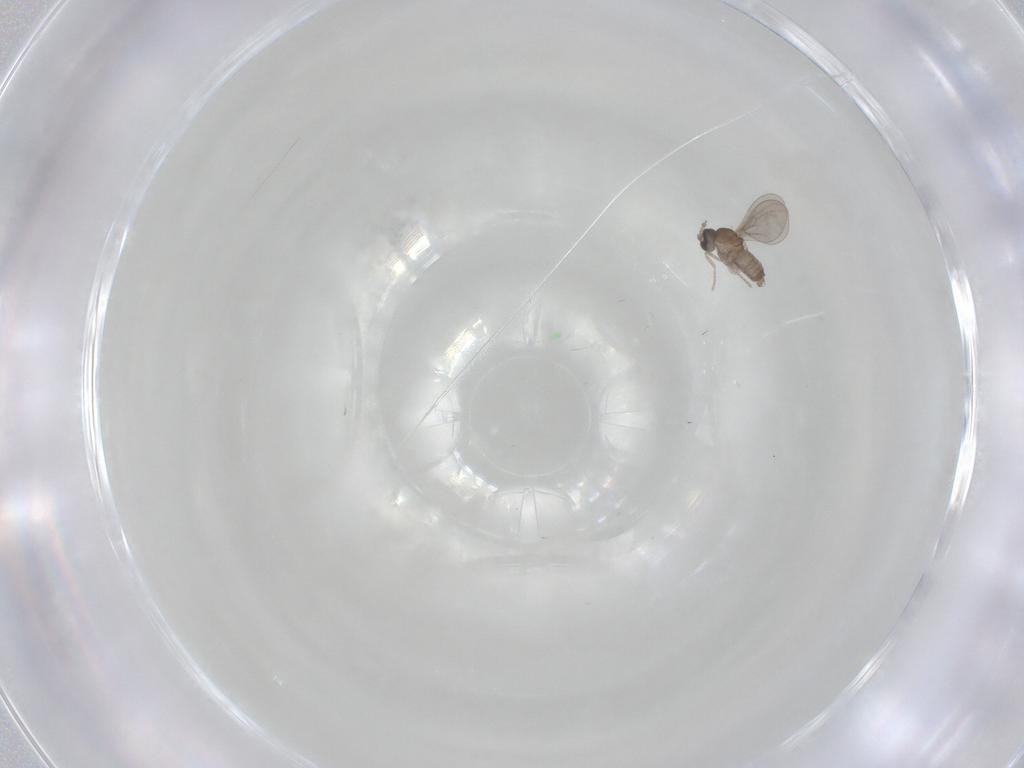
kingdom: Animalia
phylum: Arthropoda
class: Insecta
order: Diptera
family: Cecidomyiidae
